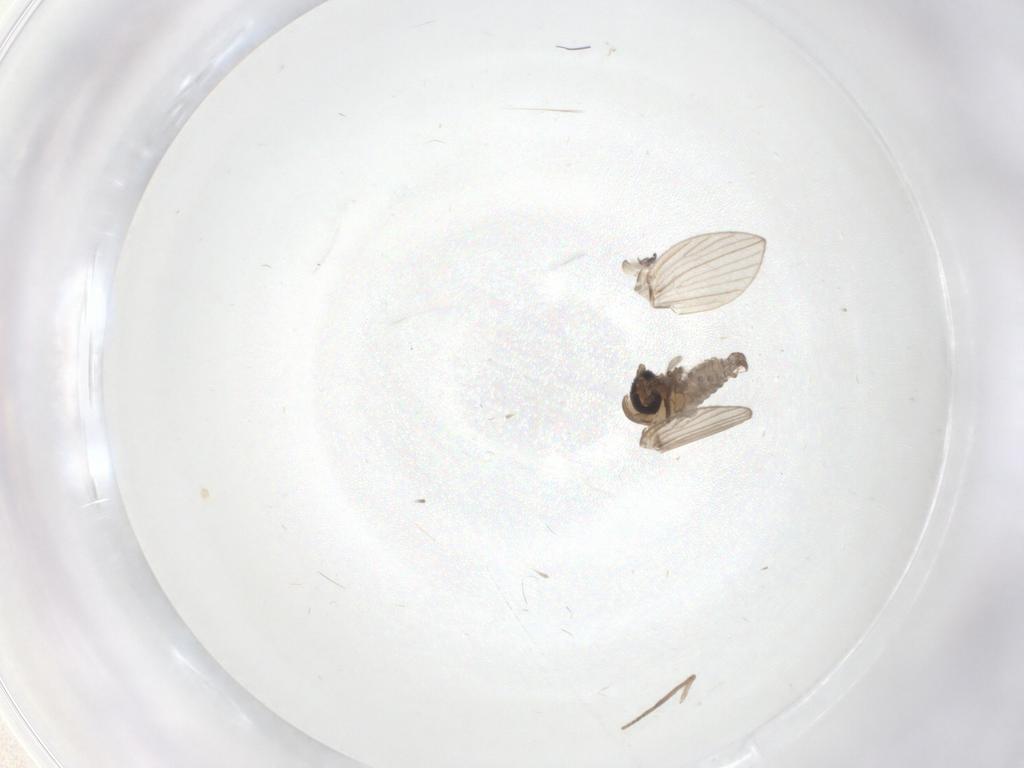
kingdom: Animalia
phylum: Arthropoda
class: Insecta
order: Diptera
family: Psychodidae
